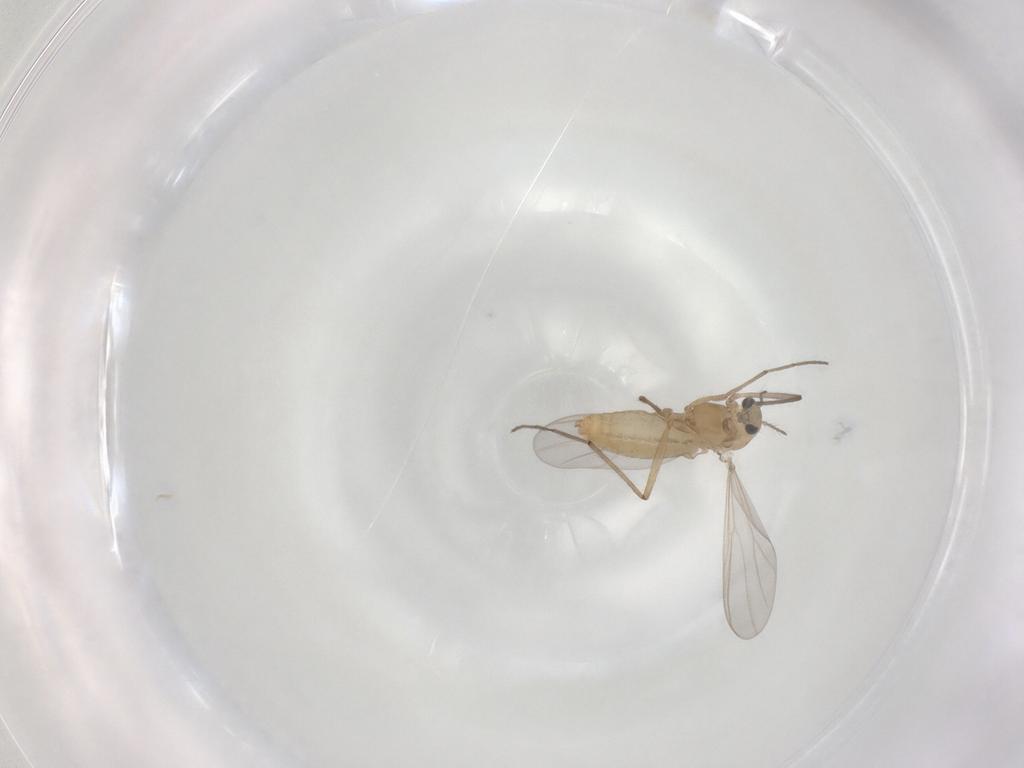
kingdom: Animalia
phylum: Arthropoda
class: Insecta
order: Diptera
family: Chironomidae
